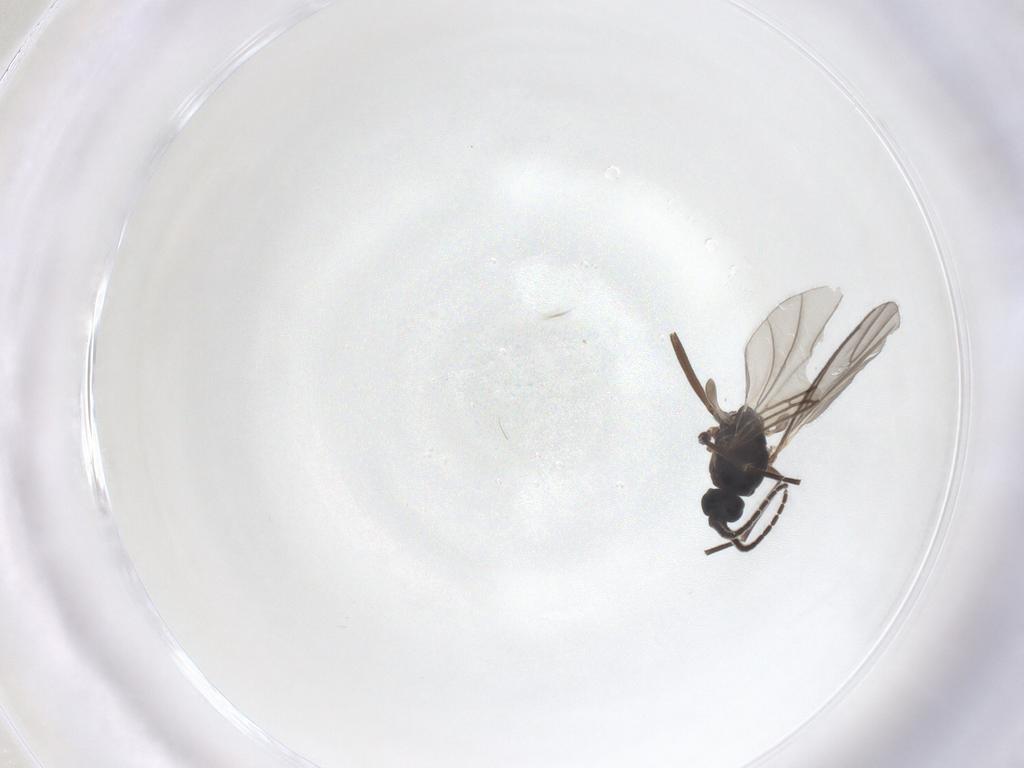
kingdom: Animalia
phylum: Arthropoda
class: Insecta
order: Diptera
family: Sciaridae
